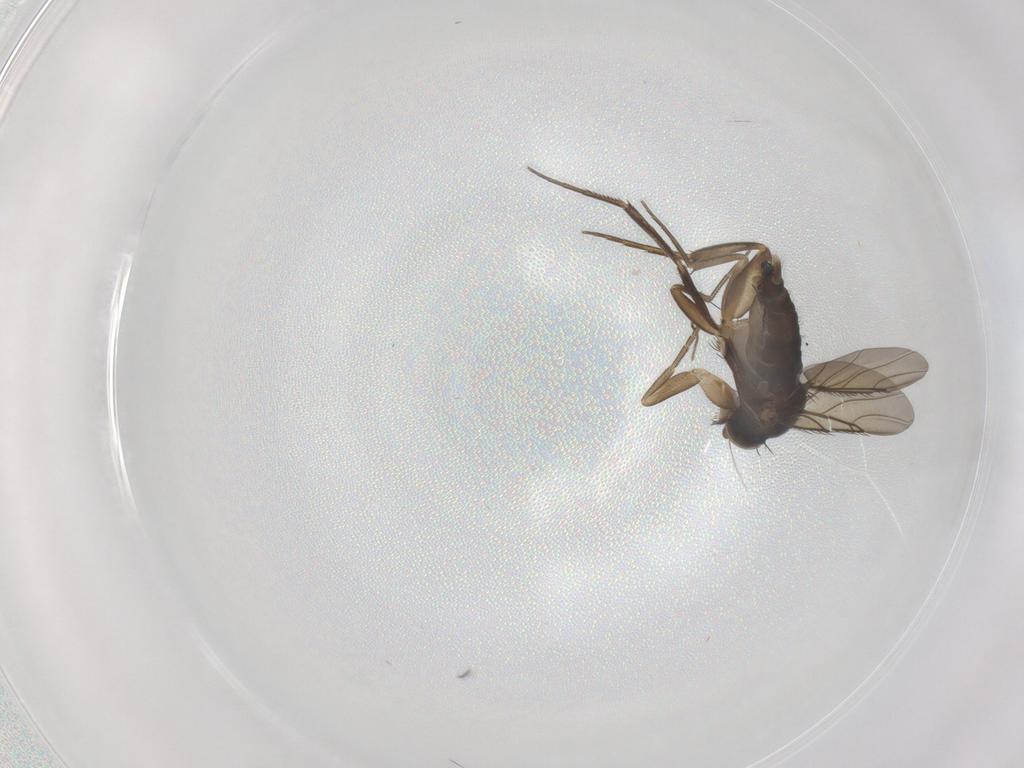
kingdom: Animalia
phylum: Arthropoda
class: Insecta
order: Diptera
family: Phoridae
